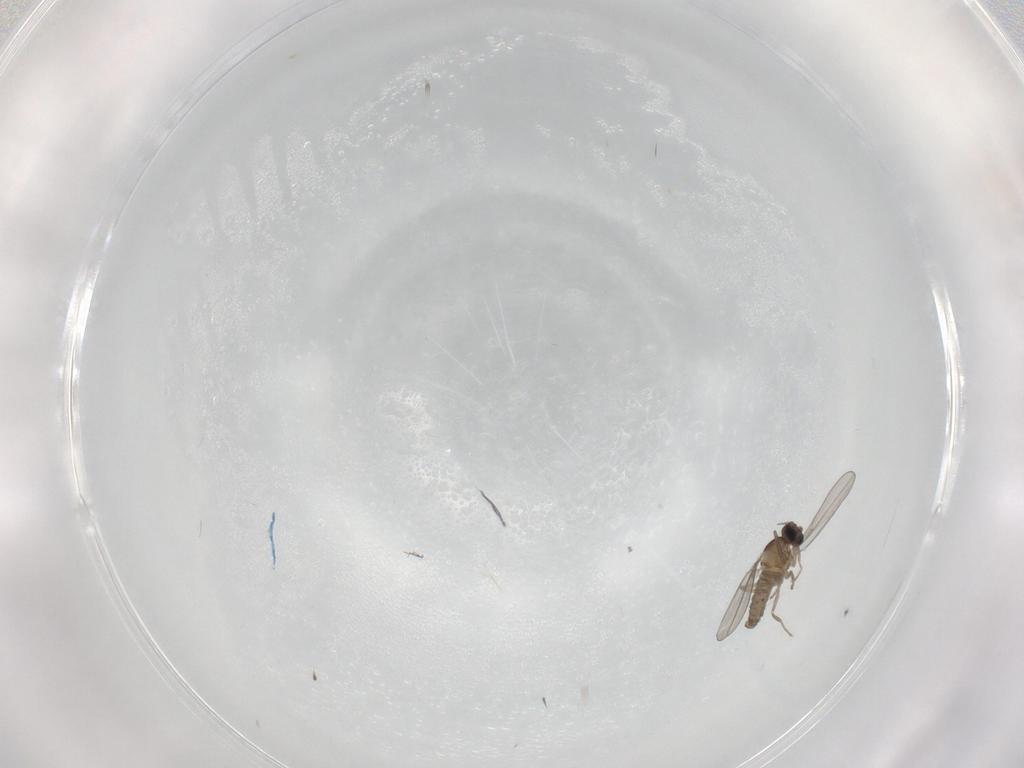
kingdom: Animalia
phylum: Arthropoda
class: Insecta
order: Diptera
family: Cecidomyiidae
